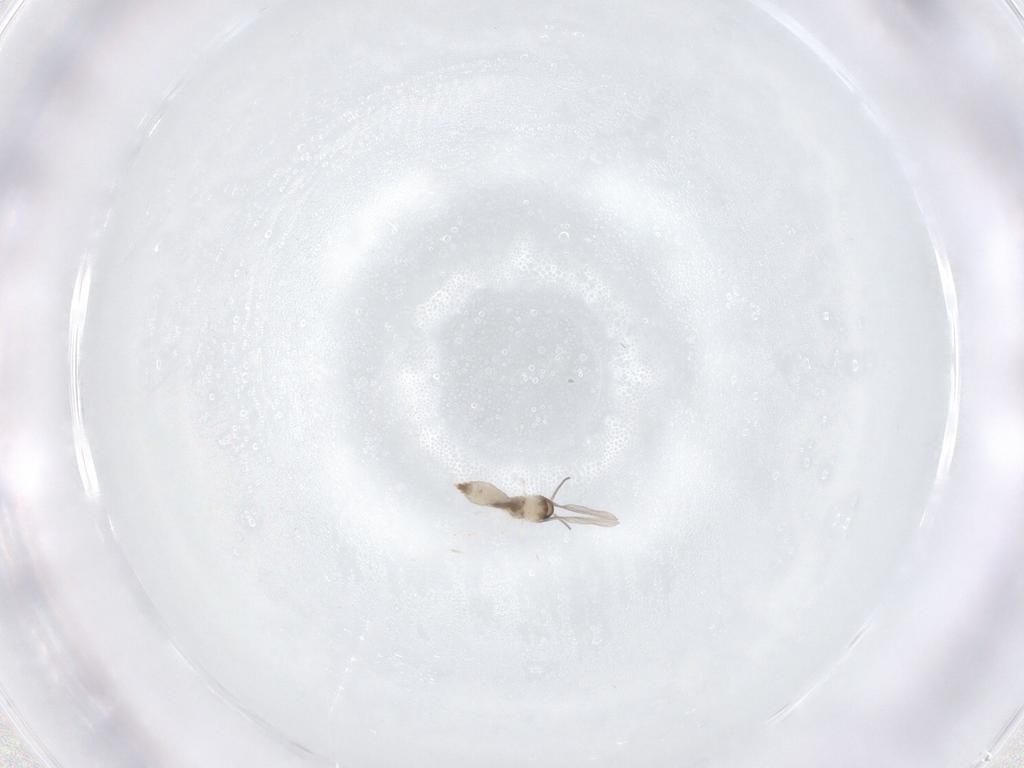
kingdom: Animalia
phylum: Arthropoda
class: Insecta
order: Diptera
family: Cecidomyiidae
